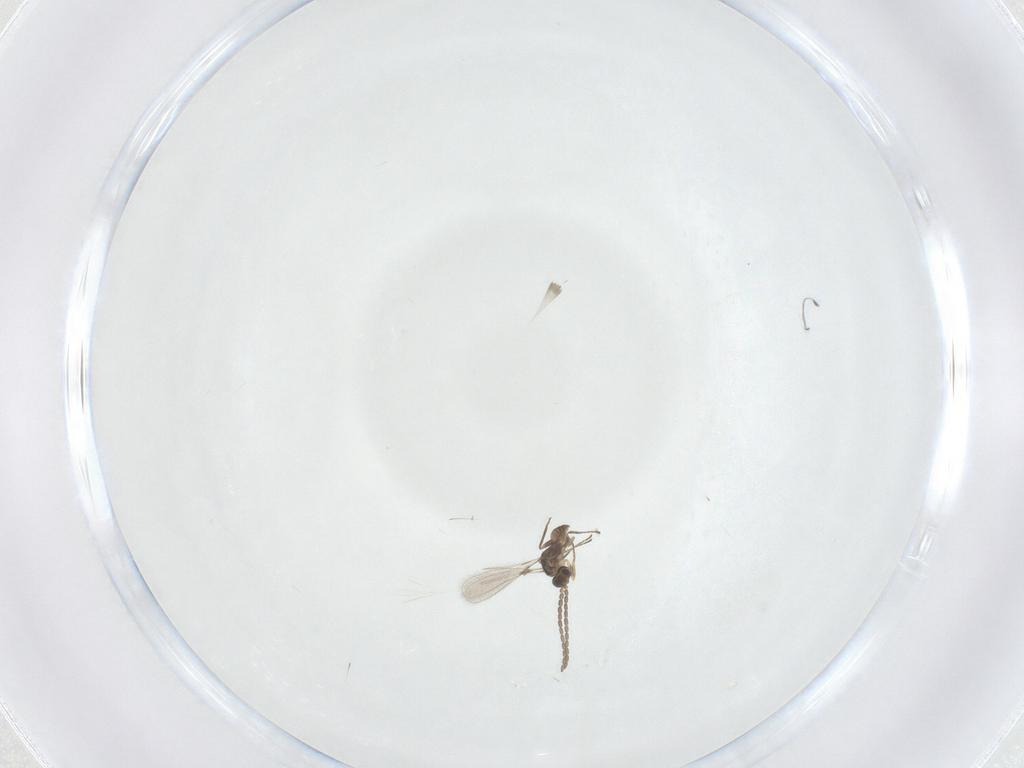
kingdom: Animalia
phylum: Arthropoda
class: Insecta
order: Hymenoptera
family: Mymaridae
